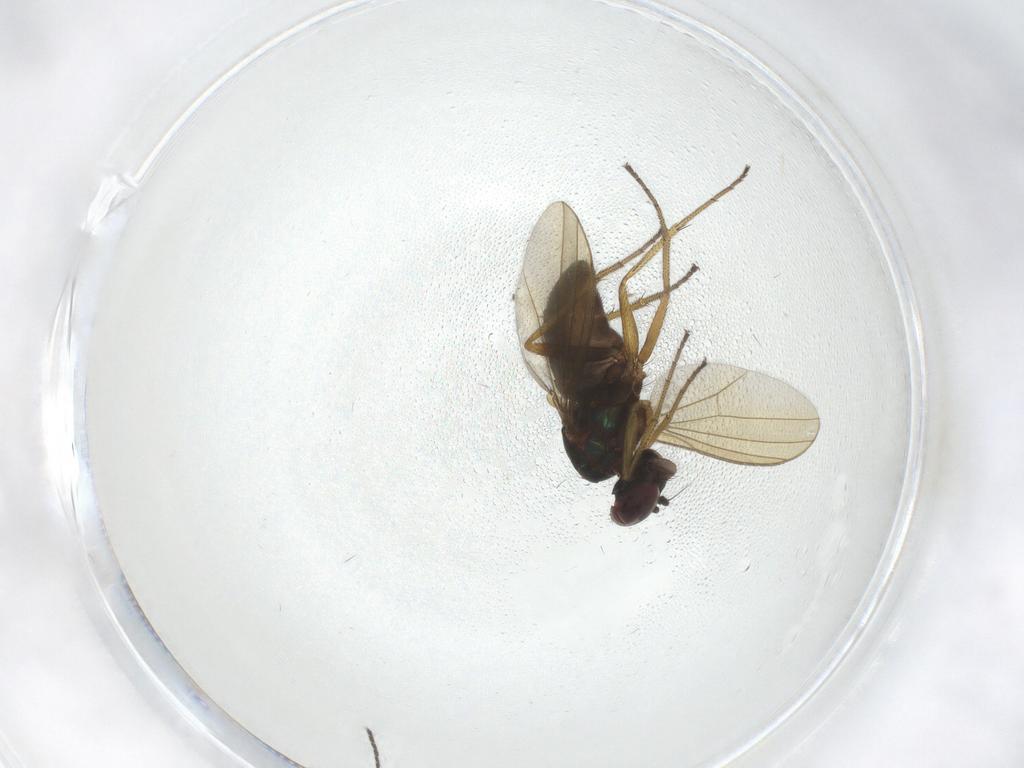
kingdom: Animalia
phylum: Arthropoda
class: Insecta
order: Diptera
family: Dolichopodidae
